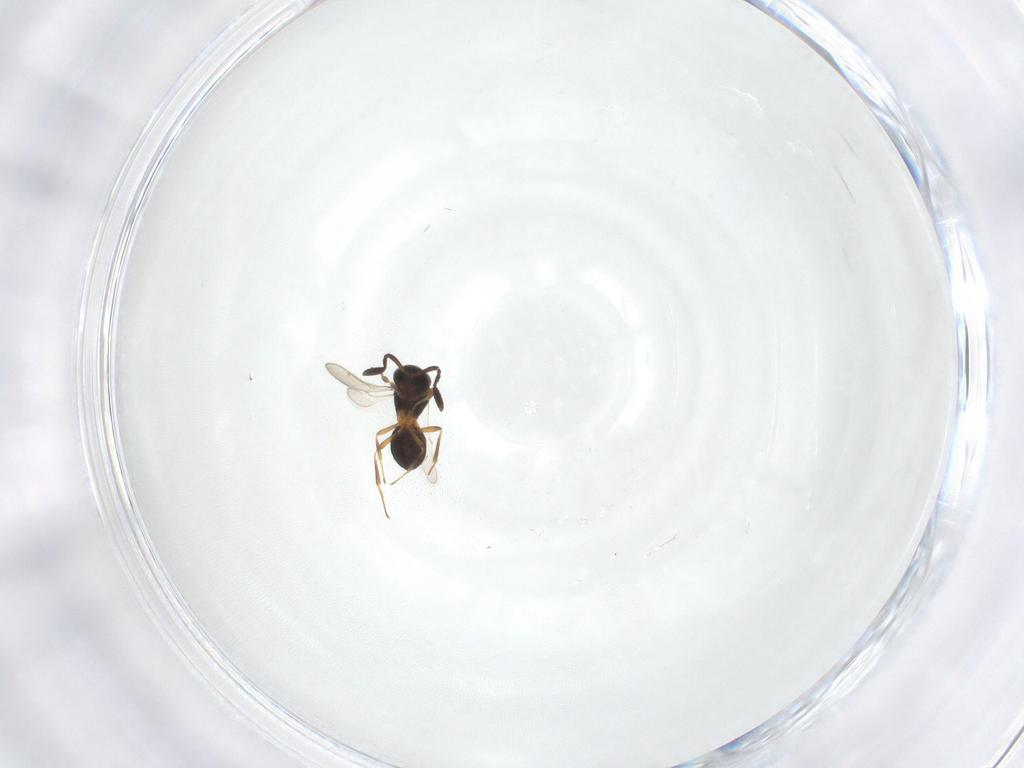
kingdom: Animalia
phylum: Arthropoda
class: Insecta
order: Hymenoptera
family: Scelionidae
